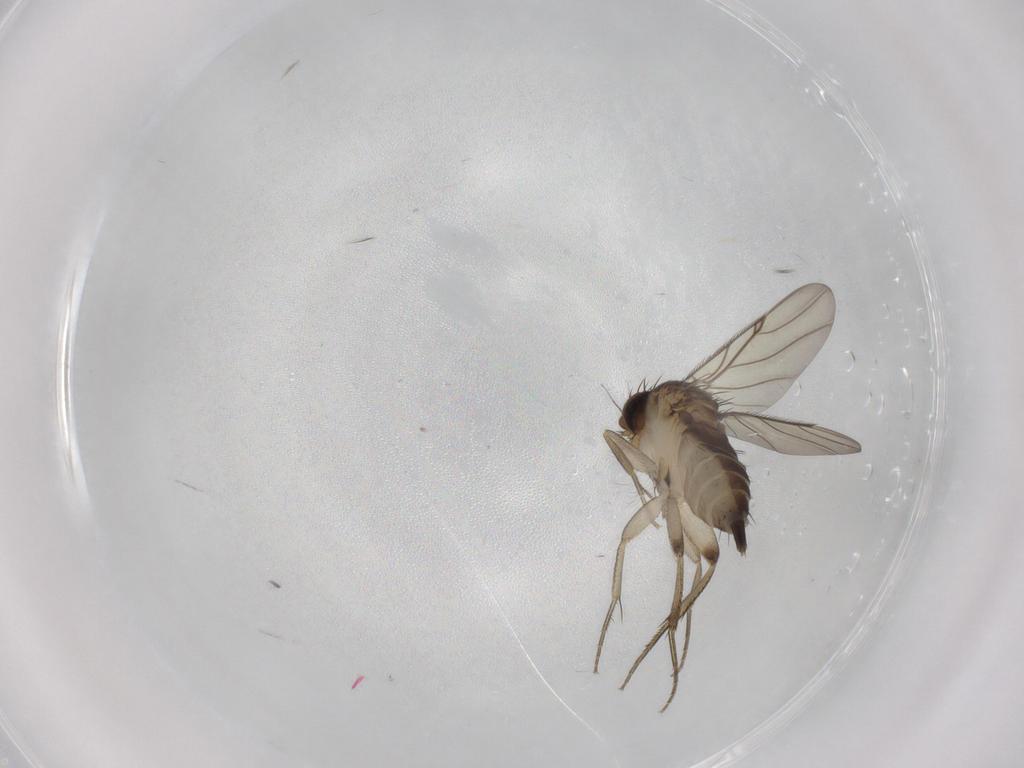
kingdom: Animalia
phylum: Arthropoda
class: Insecta
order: Diptera
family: Phoridae
